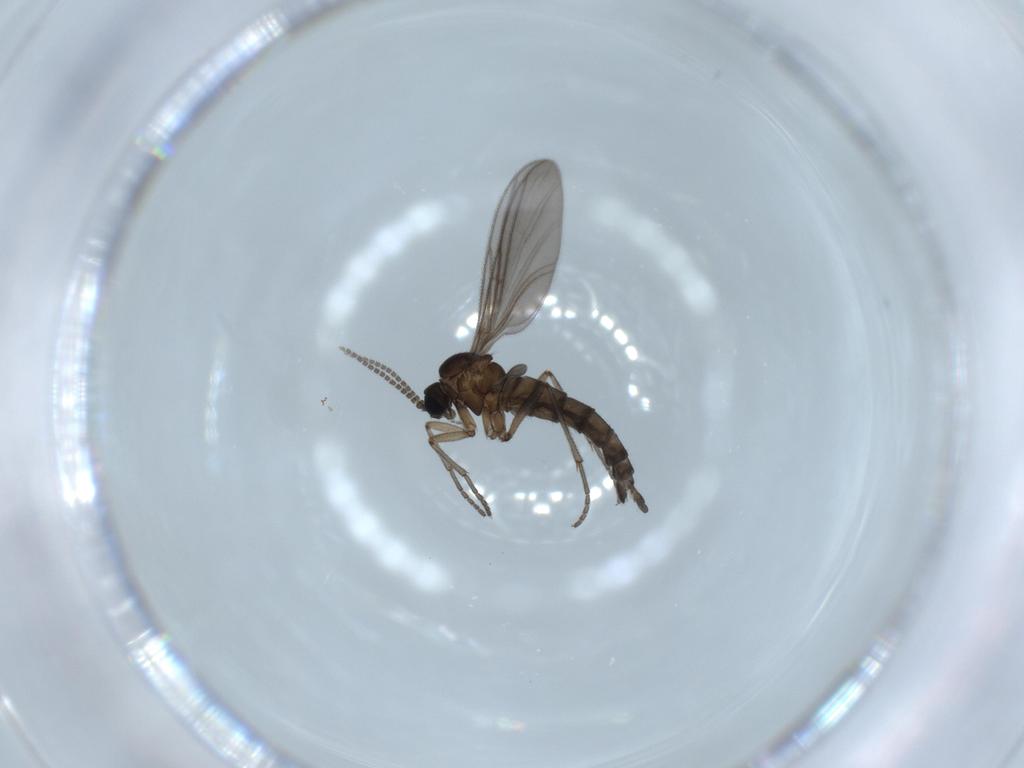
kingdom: Animalia
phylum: Arthropoda
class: Insecta
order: Diptera
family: Sciaridae
